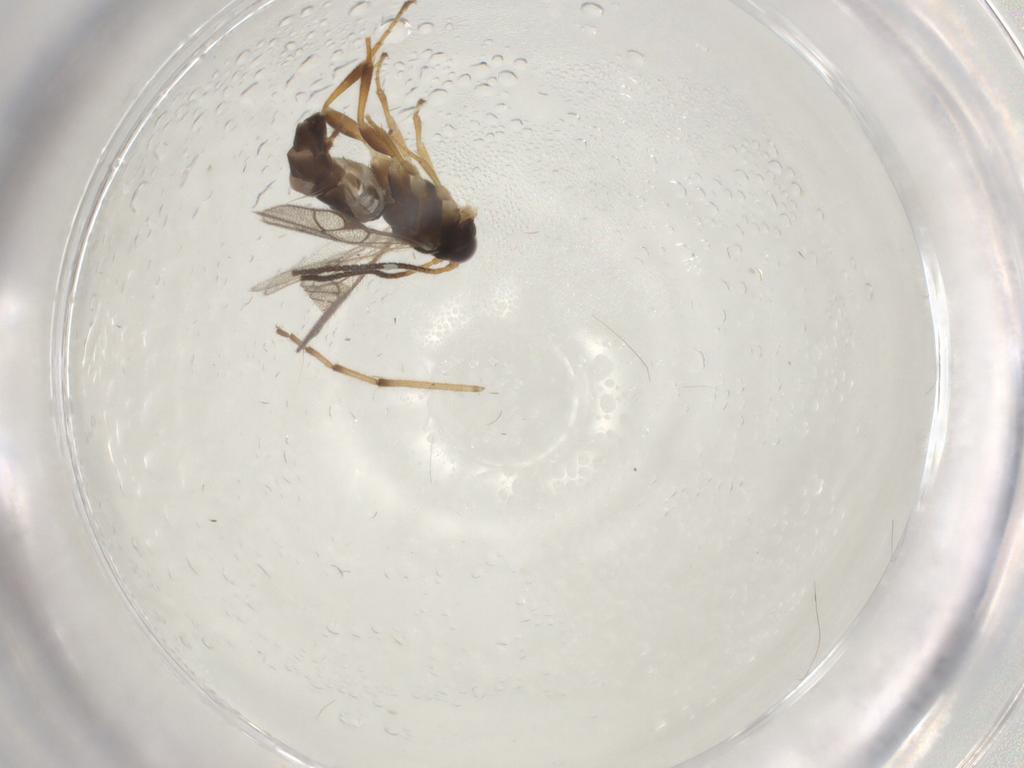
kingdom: Animalia
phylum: Arthropoda
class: Insecta
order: Hymenoptera
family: Ichneumonidae
